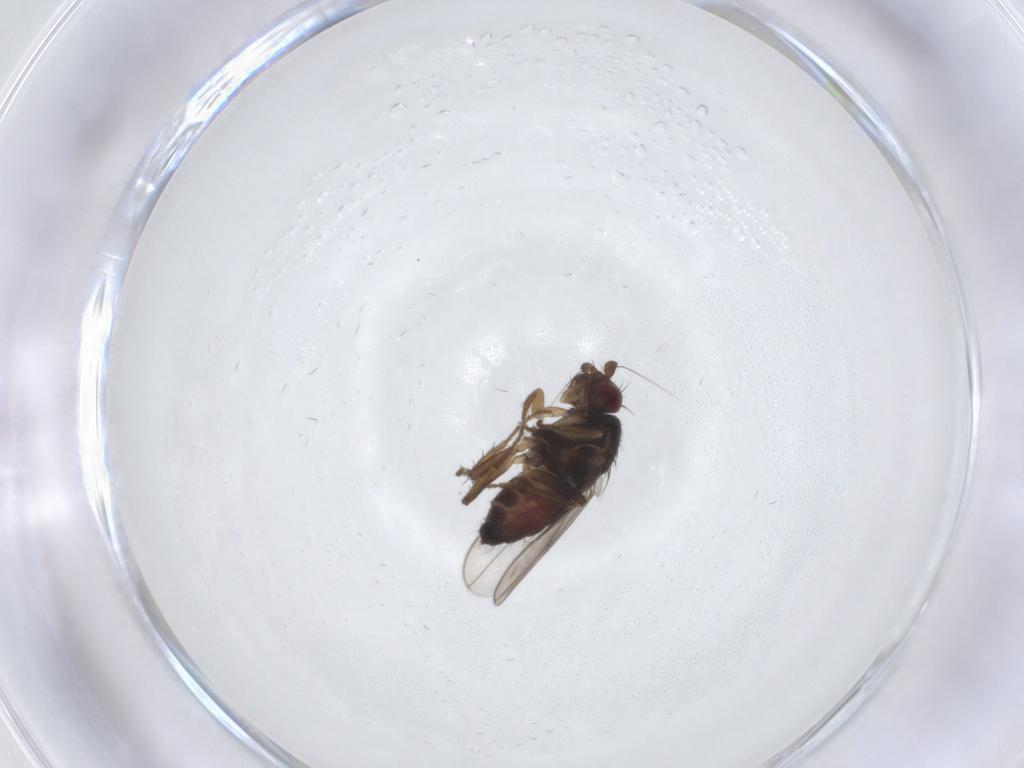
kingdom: Animalia
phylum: Arthropoda
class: Insecta
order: Diptera
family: Sphaeroceridae
